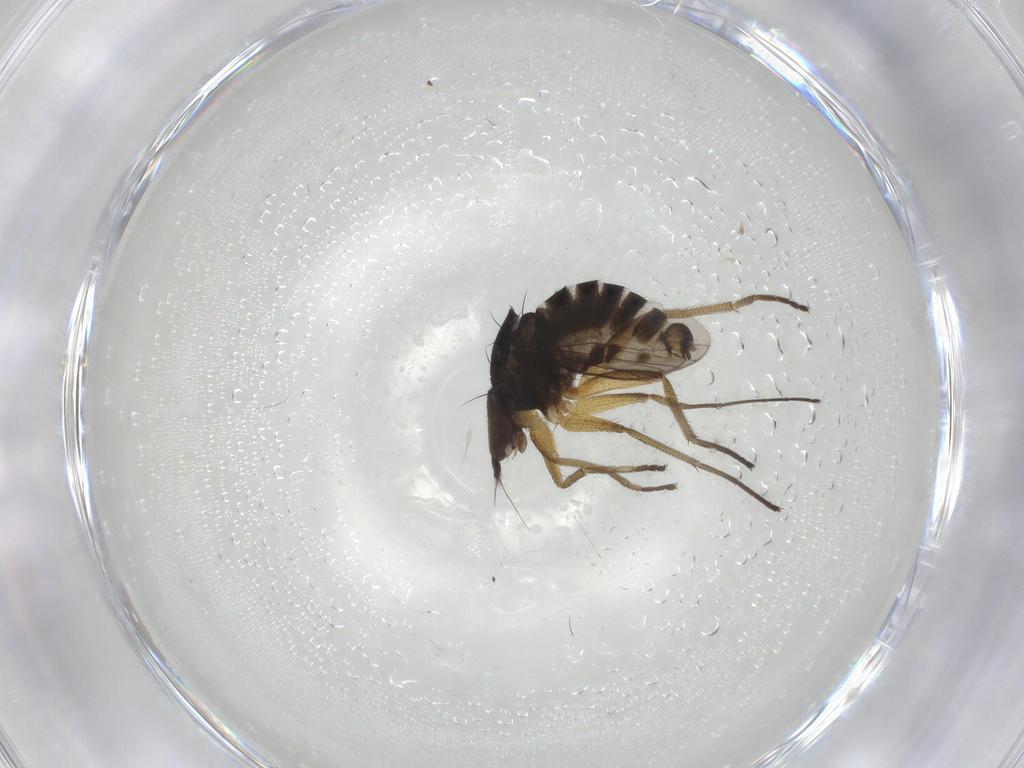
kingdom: Animalia
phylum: Arthropoda
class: Insecta
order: Diptera
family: Dolichopodidae
